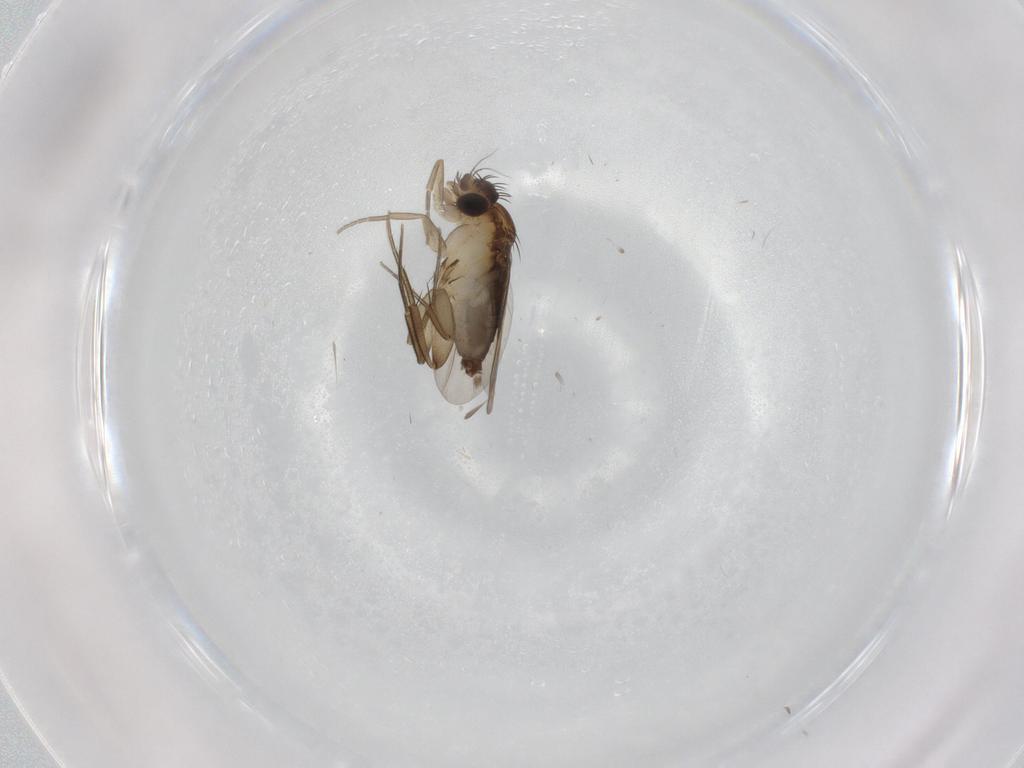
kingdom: Animalia
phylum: Arthropoda
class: Insecta
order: Diptera
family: Phoridae
